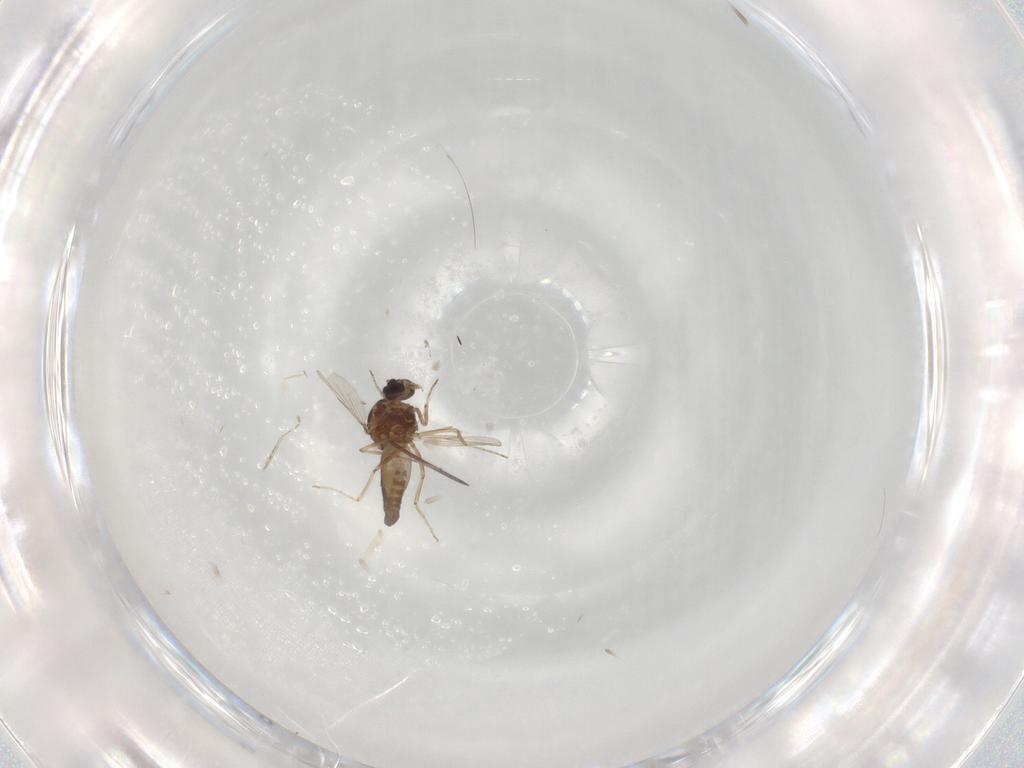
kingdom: Animalia
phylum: Arthropoda
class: Insecta
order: Diptera
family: Ceratopogonidae
